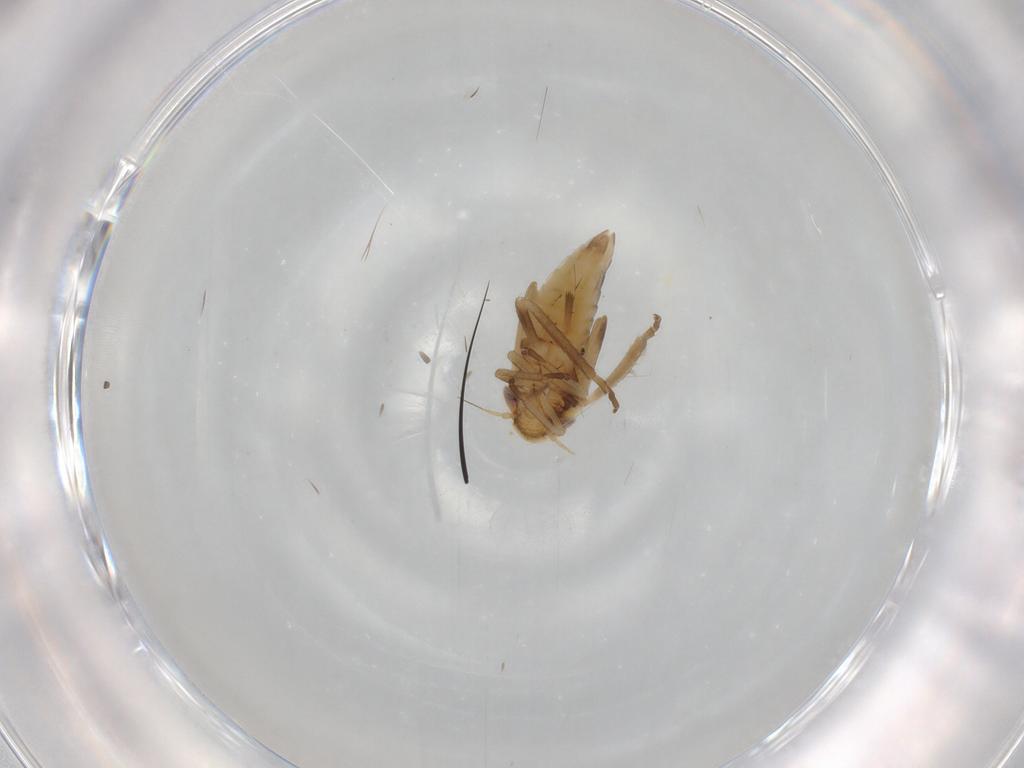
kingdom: Animalia
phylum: Arthropoda
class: Insecta
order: Hemiptera
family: Cicadellidae
